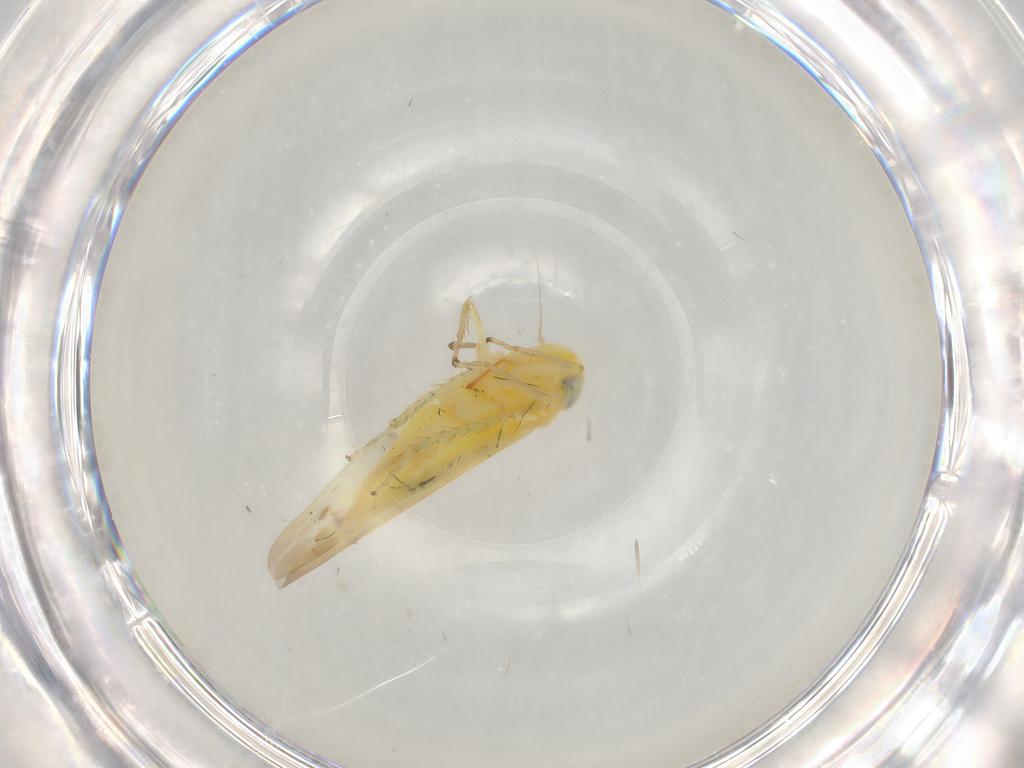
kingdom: Animalia
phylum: Arthropoda
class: Insecta
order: Hemiptera
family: Cicadellidae
